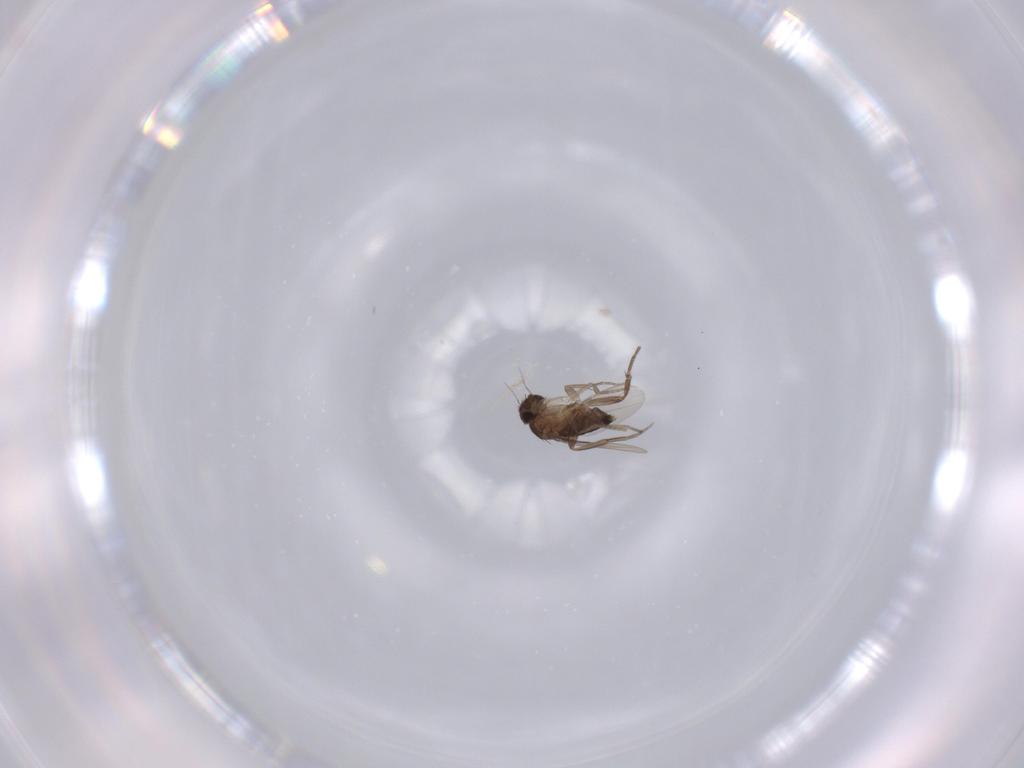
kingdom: Animalia
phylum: Arthropoda
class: Insecta
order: Diptera
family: Phoridae
